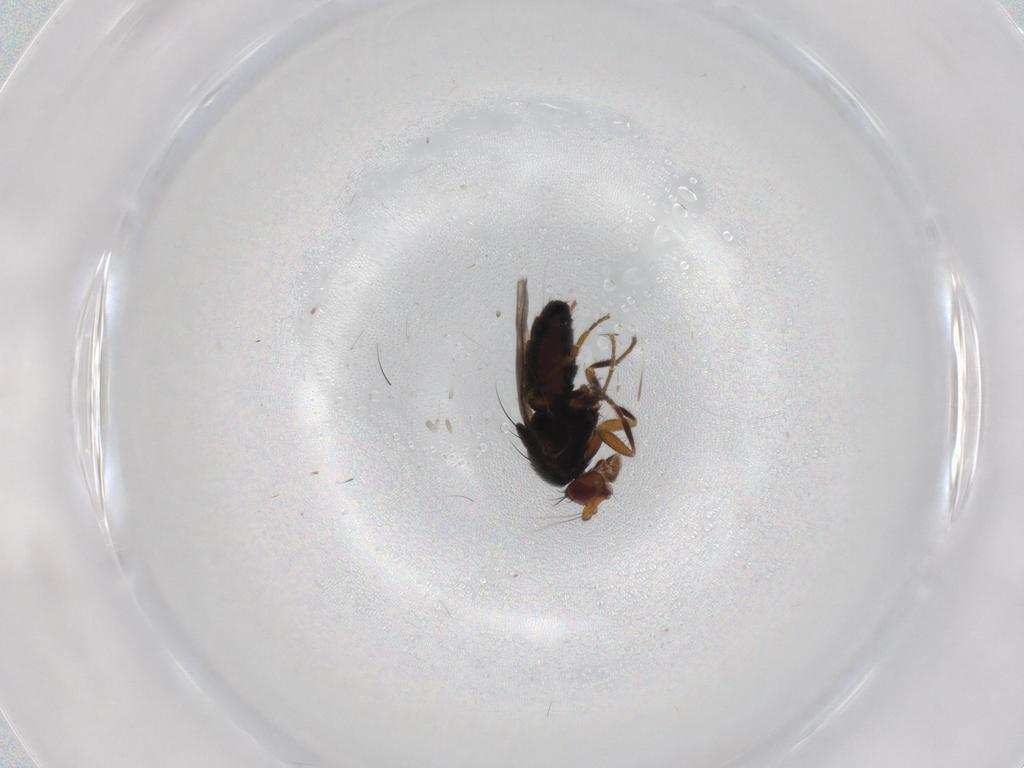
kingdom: Animalia
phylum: Arthropoda
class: Insecta
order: Diptera
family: Sphaeroceridae
